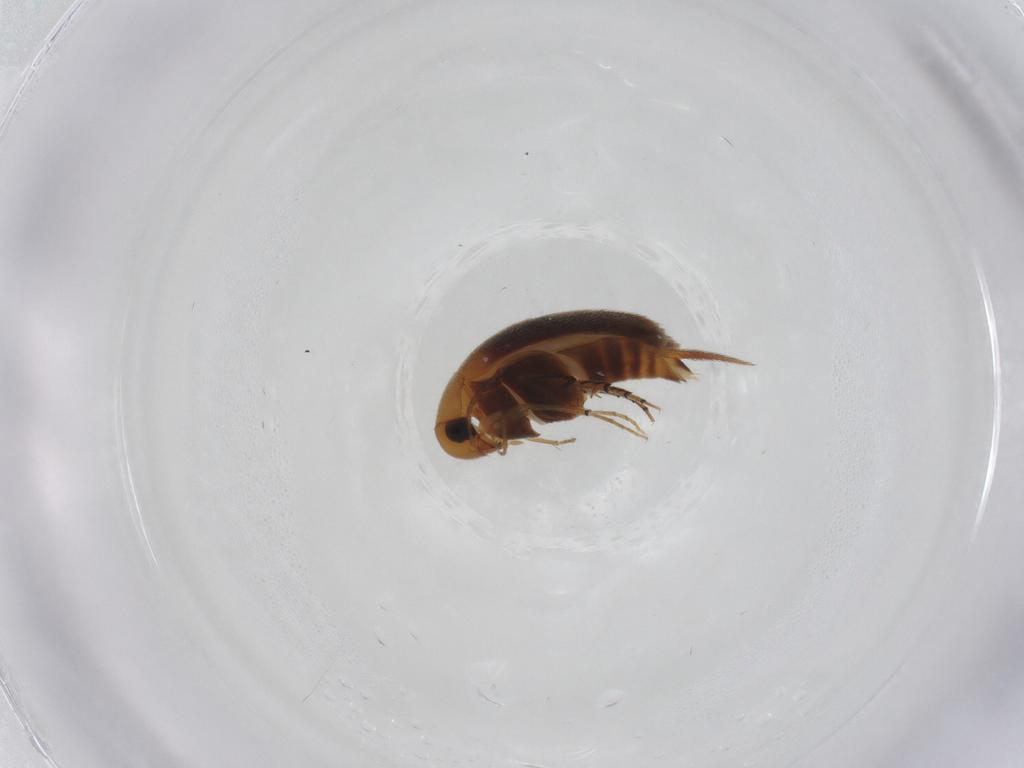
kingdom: Animalia
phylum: Arthropoda
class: Insecta
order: Coleoptera
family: Mordellidae
